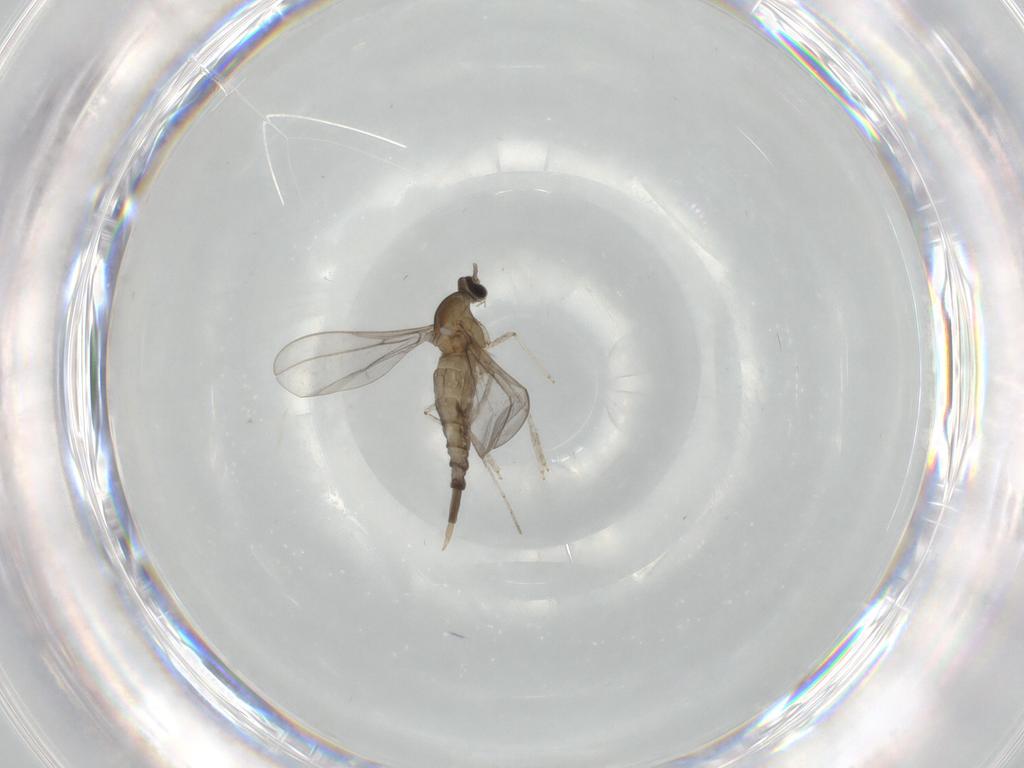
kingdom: Animalia
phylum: Arthropoda
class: Insecta
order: Diptera
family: Cecidomyiidae
